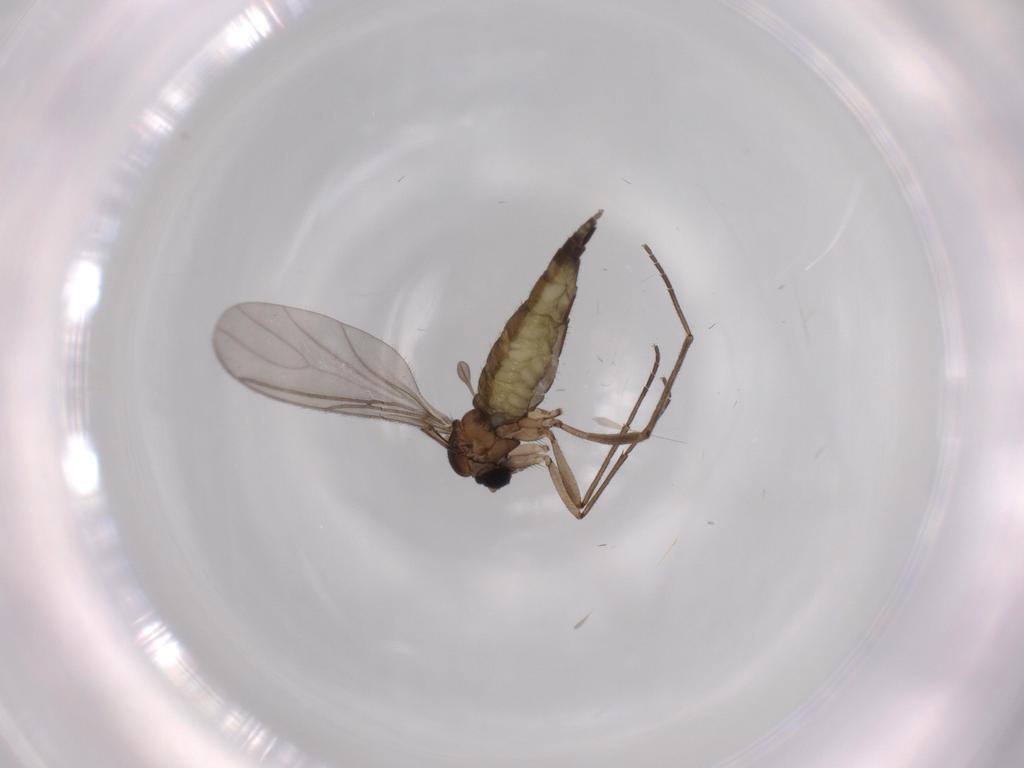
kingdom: Animalia
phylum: Arthropoda
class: Insecta
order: Diptera
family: Sciaridae
